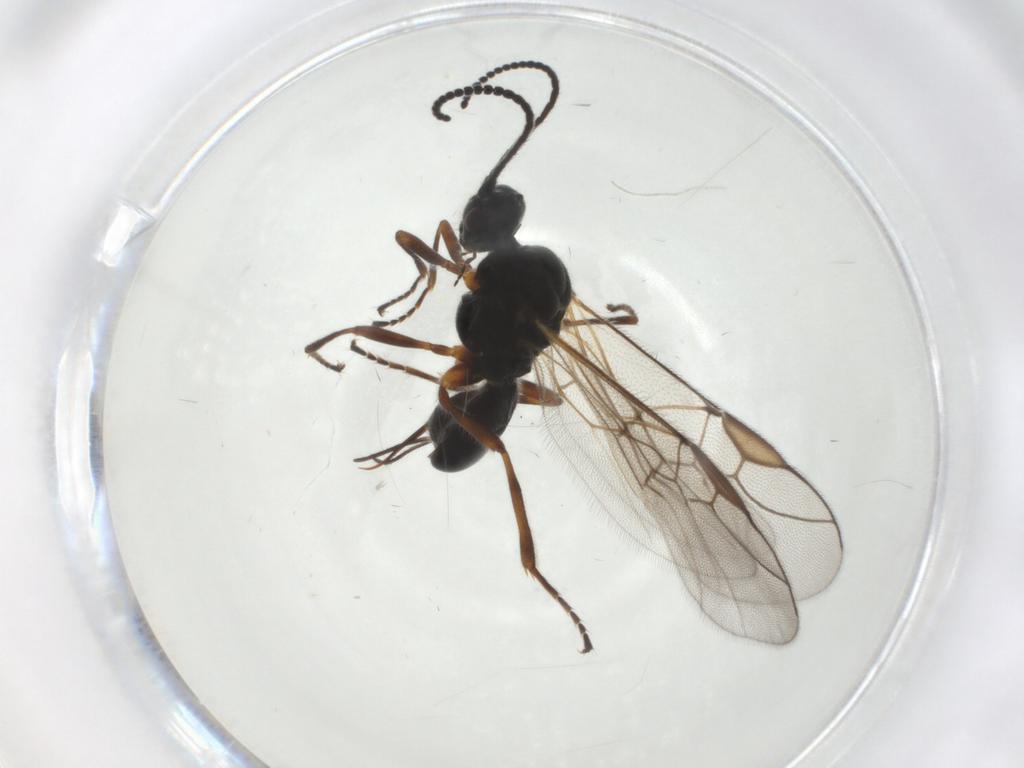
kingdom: Animalia
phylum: Arthropoda
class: Insecta
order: Hymenoptera
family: Braconidae
